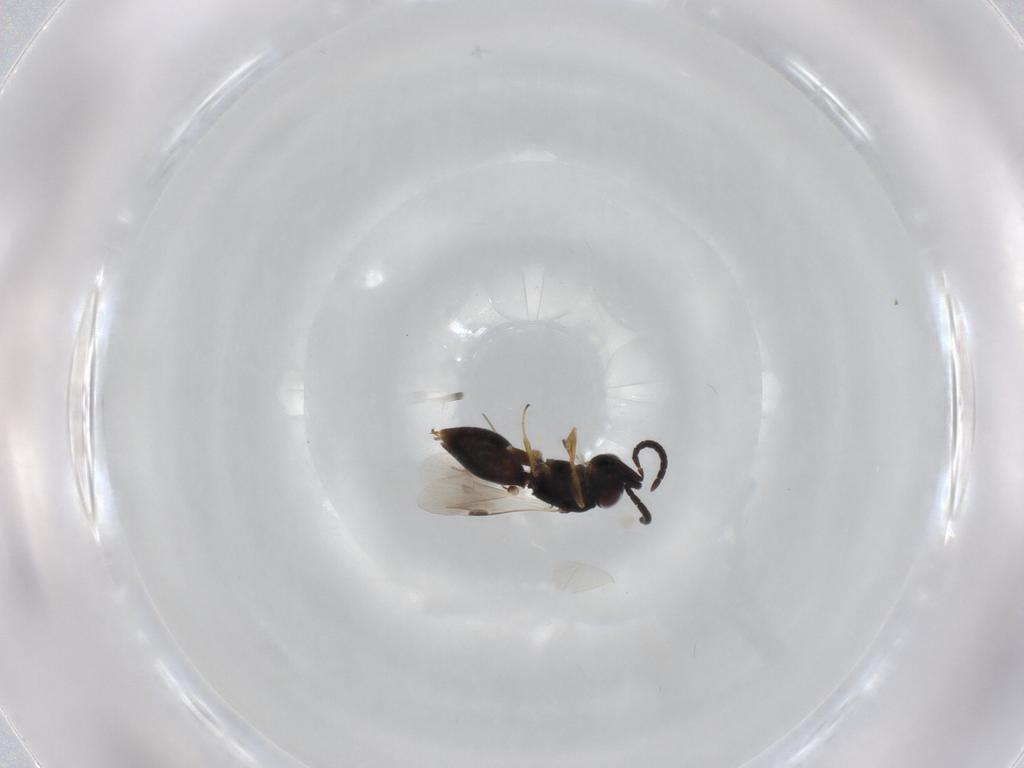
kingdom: Animalia
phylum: Arthropoda
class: Insecta
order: Hymenoptera
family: Megaspilidae
